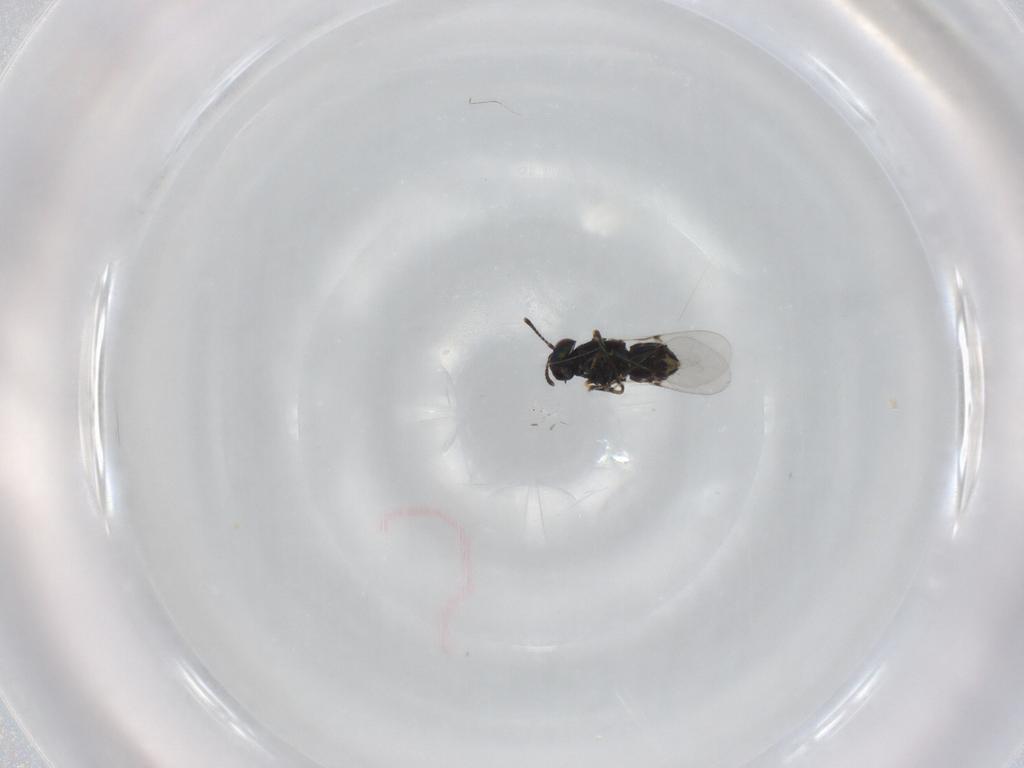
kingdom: Animalia
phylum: Arthropoda
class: Insecta
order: Hymenoptera
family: Encyrtidae
